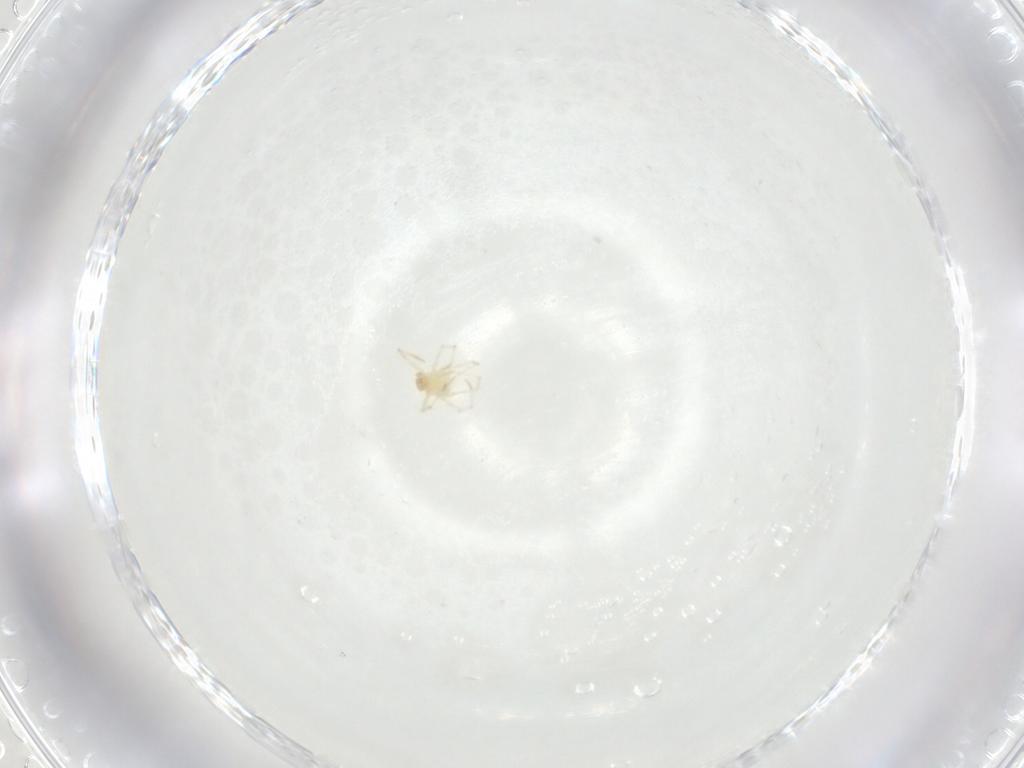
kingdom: Animalia
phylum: Arthropoda
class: Arachnida
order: Trombidiformes
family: Erythraeidae
